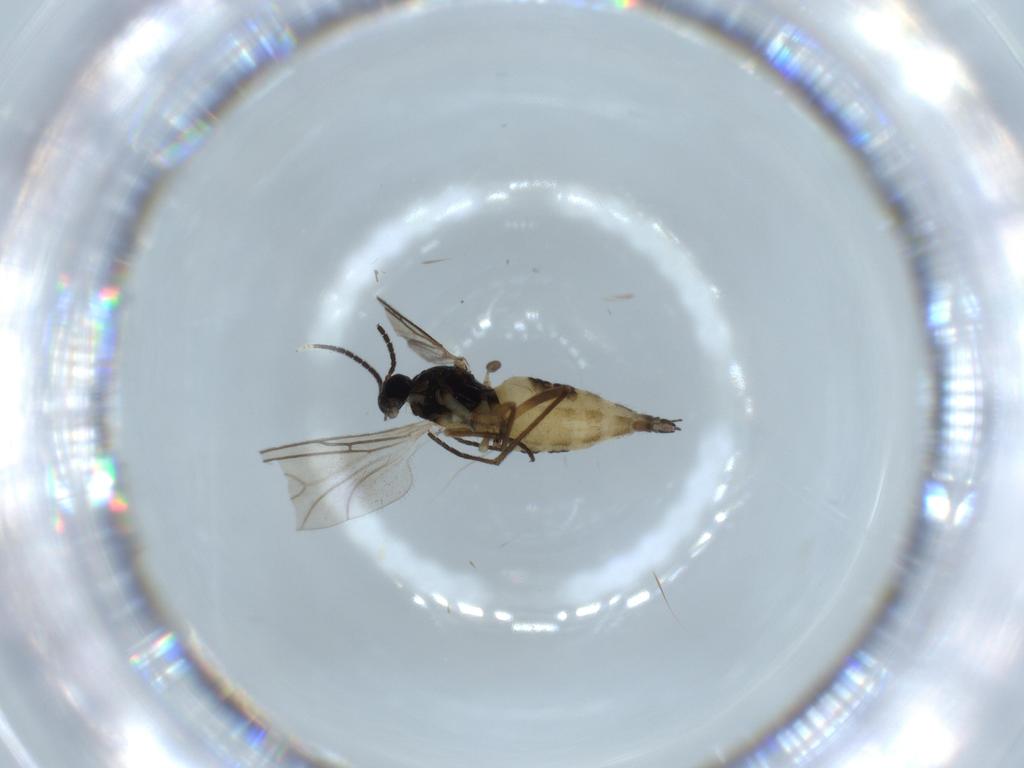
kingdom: Animalia
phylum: Arthropoda
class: Insecta
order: Diptera
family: Sciaridae
